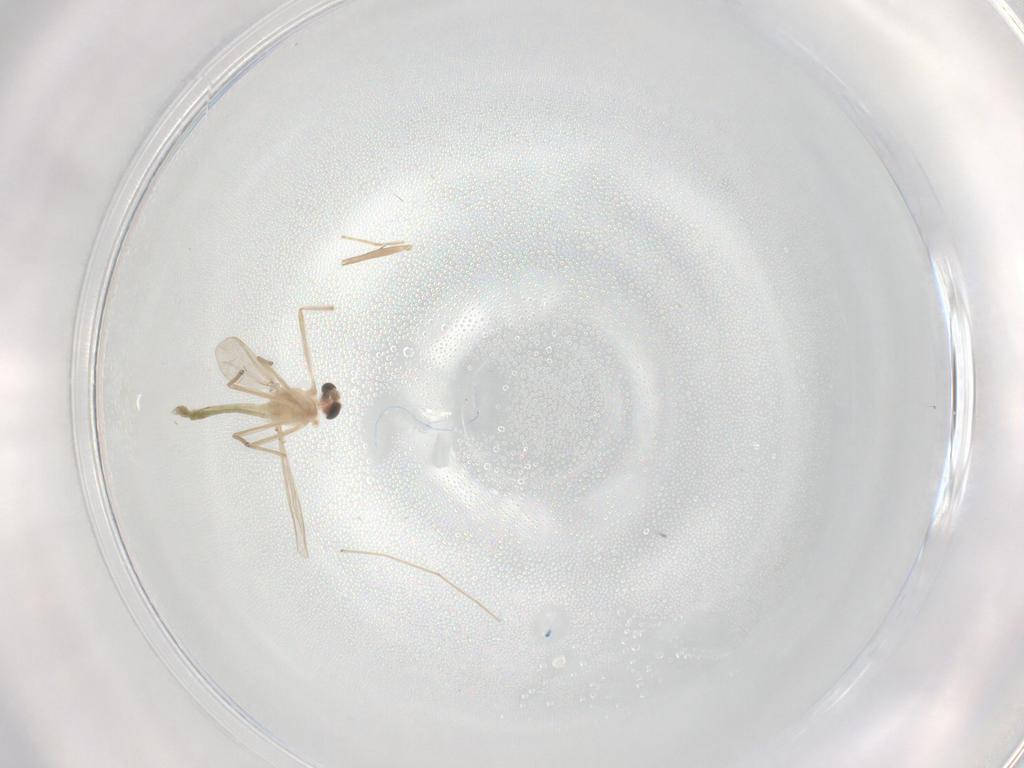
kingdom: Animalia
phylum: Arthropoda
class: Insecta
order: Diptera
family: Chironomidae
